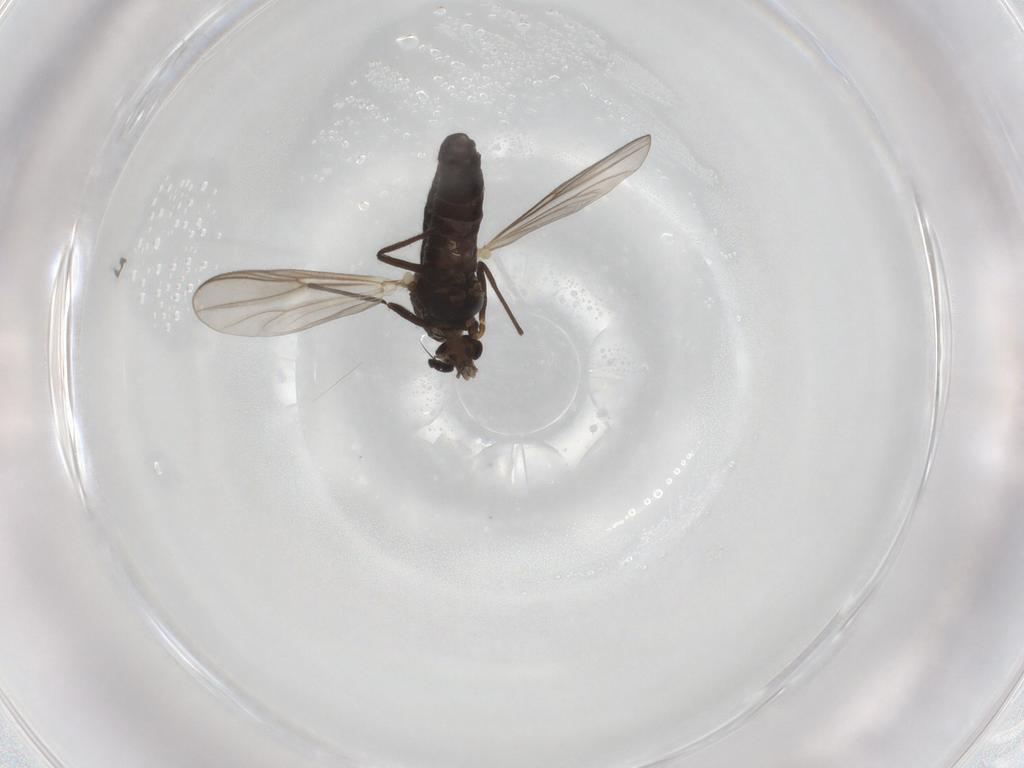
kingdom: Animalia
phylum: Arthropoda
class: Insecta
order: Diptera
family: Chironomidae
